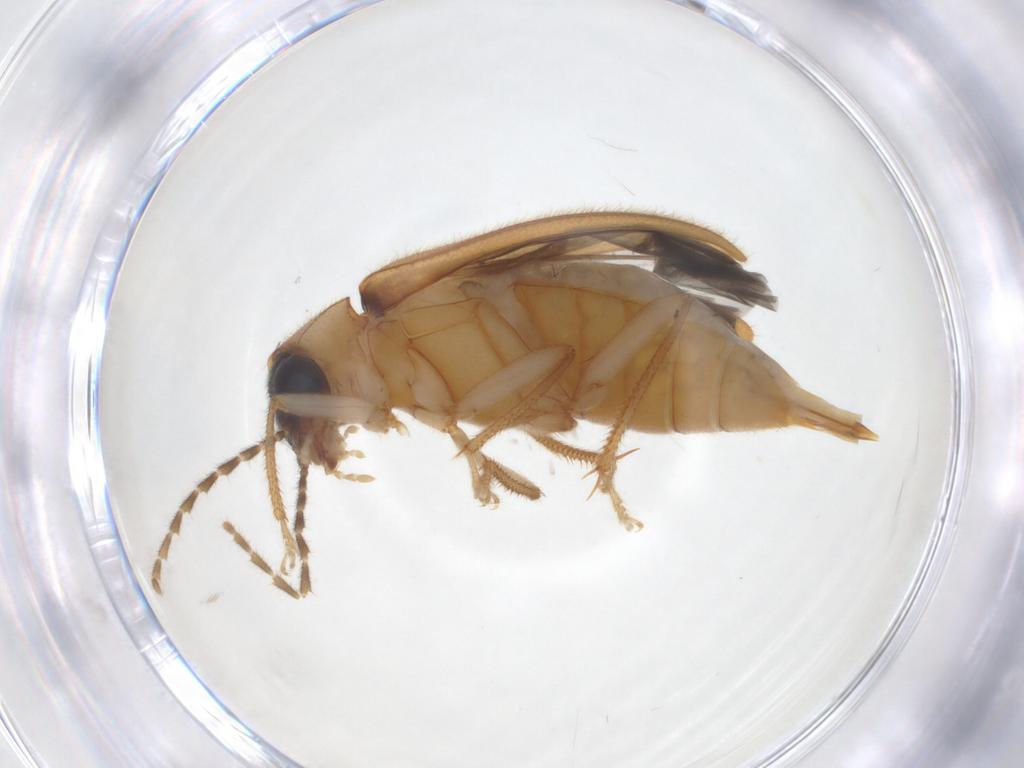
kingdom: Animalia
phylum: Arthropoda
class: Insecta
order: Coleoptera
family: Ptilodactylidae
